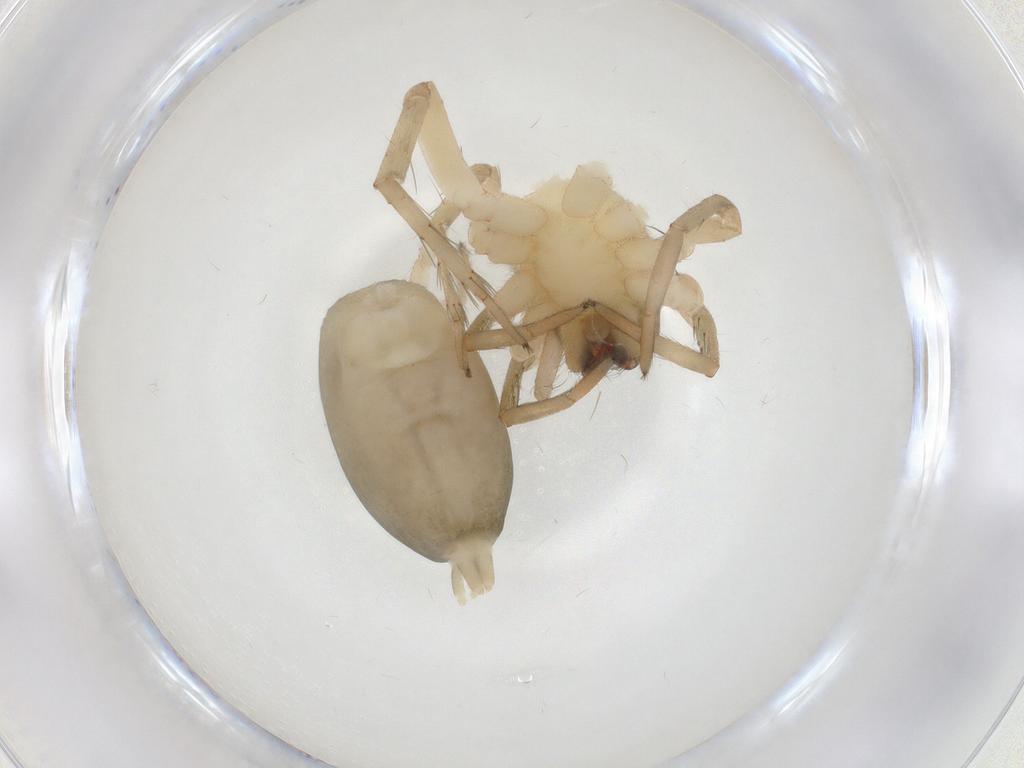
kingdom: Animalia
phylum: Arthropoda
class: Arachnida
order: Araneae
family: Amaurobiidae
